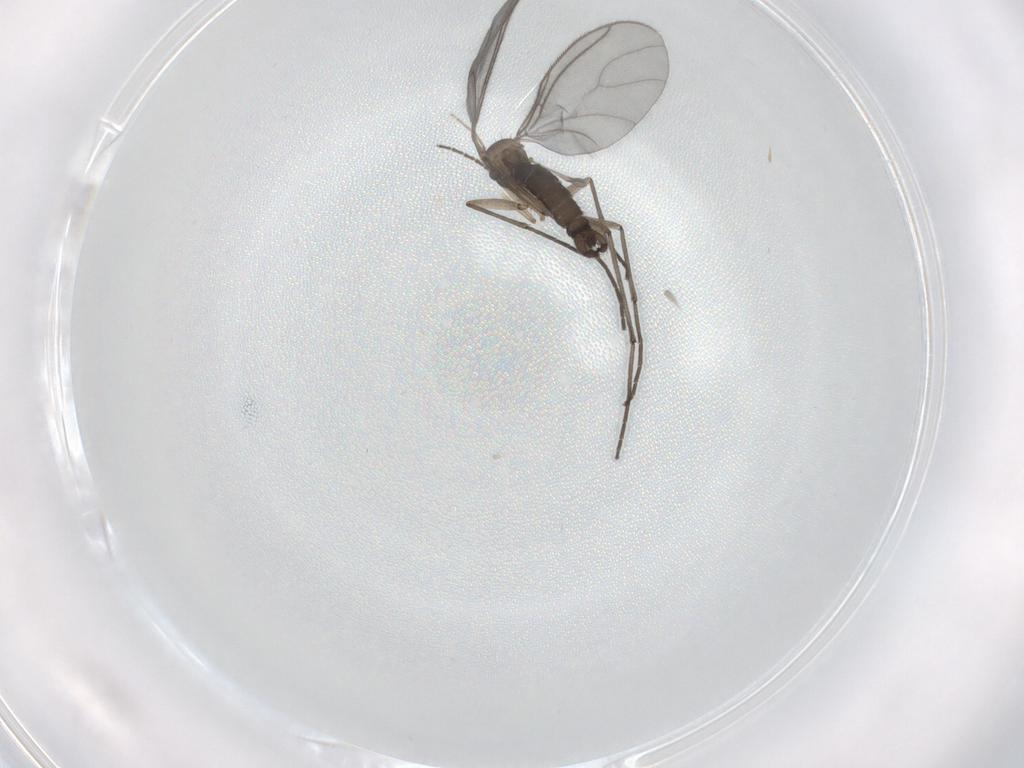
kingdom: Animalia
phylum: Arthropoda
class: Insecta
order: Diptera
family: Chironomidae
